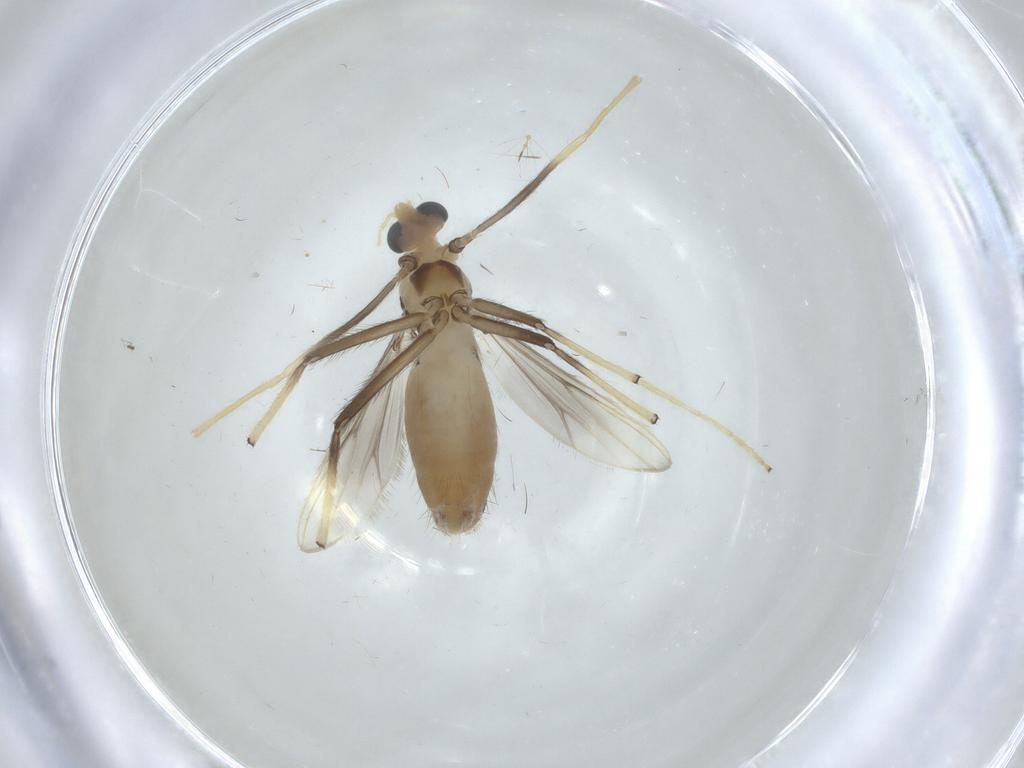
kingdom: Animalia
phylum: Arthropoda
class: Insecta
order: Diptera
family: Chironomidae
